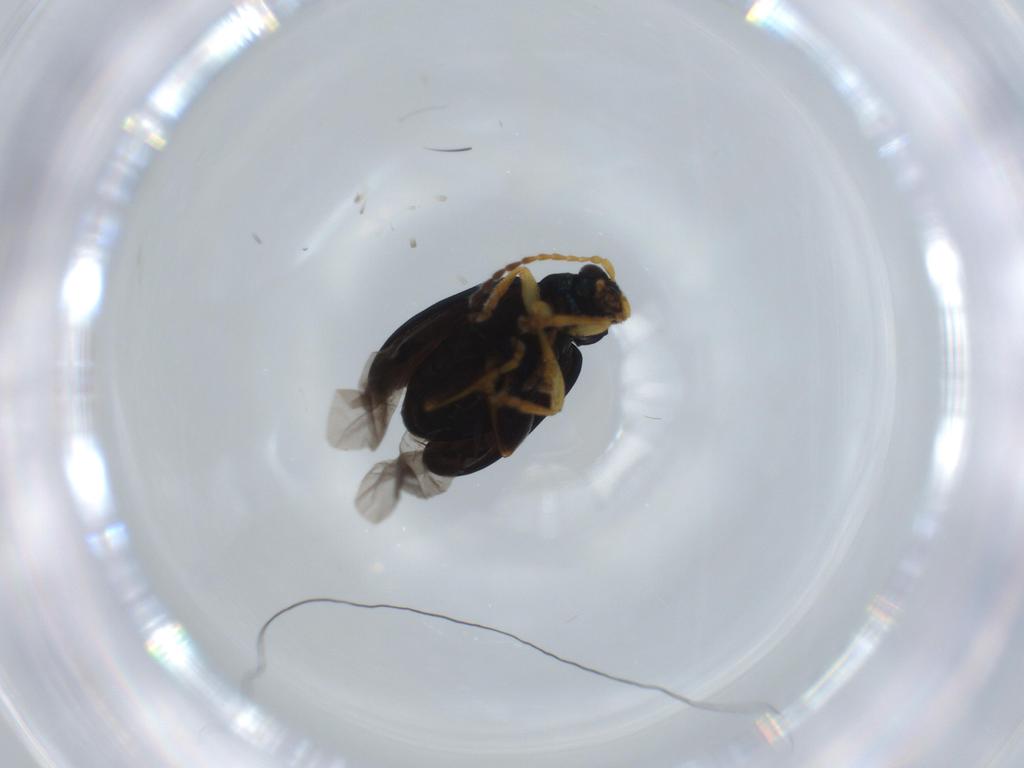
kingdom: Animalia
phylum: Arthropoda
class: Insecta
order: Coleoptera
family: Chrysomelidae
